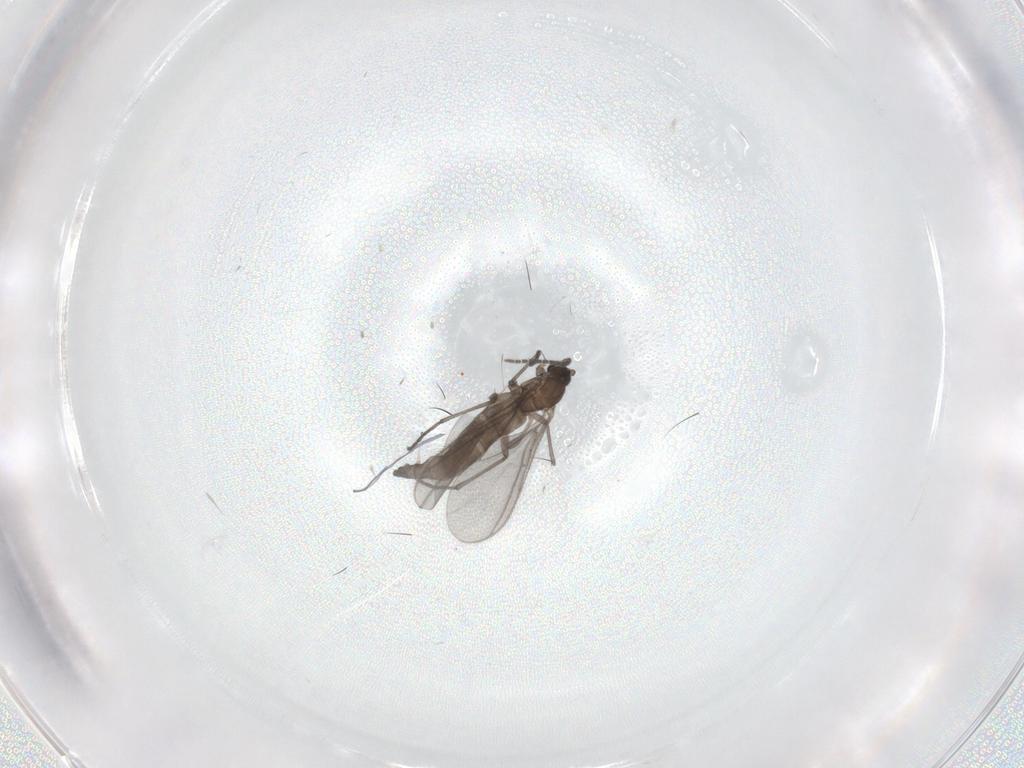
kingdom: Animalia
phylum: Arthropoda
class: Insecta
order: Diptera
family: Sciaridae
